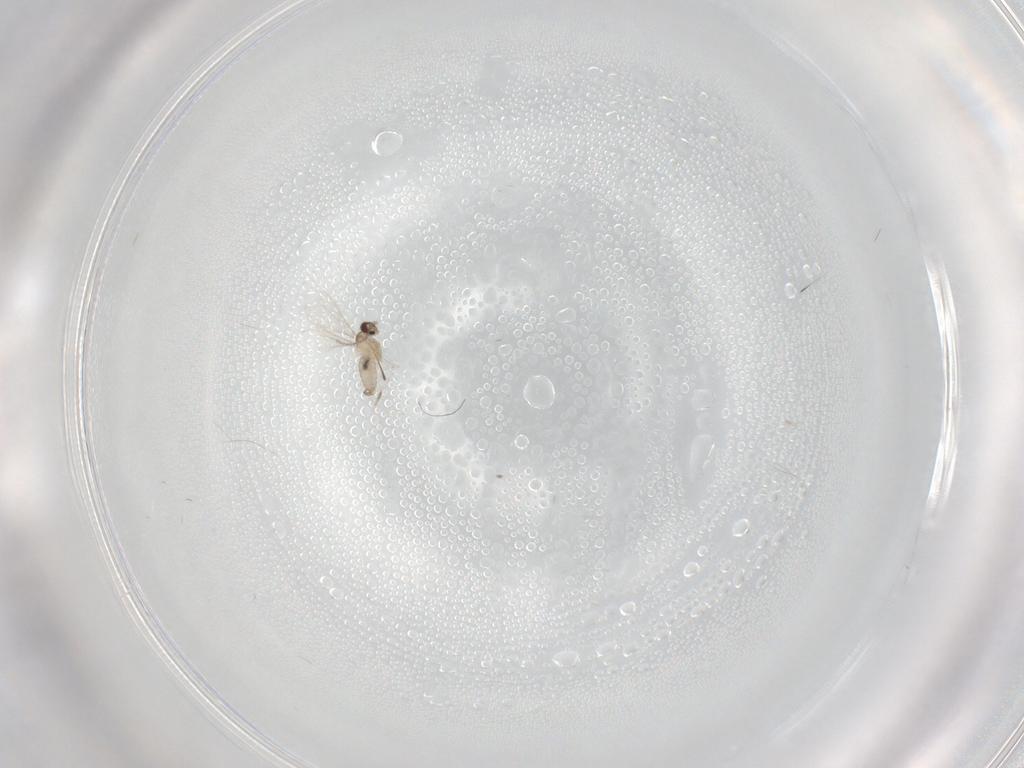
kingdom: Animalia
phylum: Arthropoda
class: Insecta
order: Diptera
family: Cecidomyiidae
